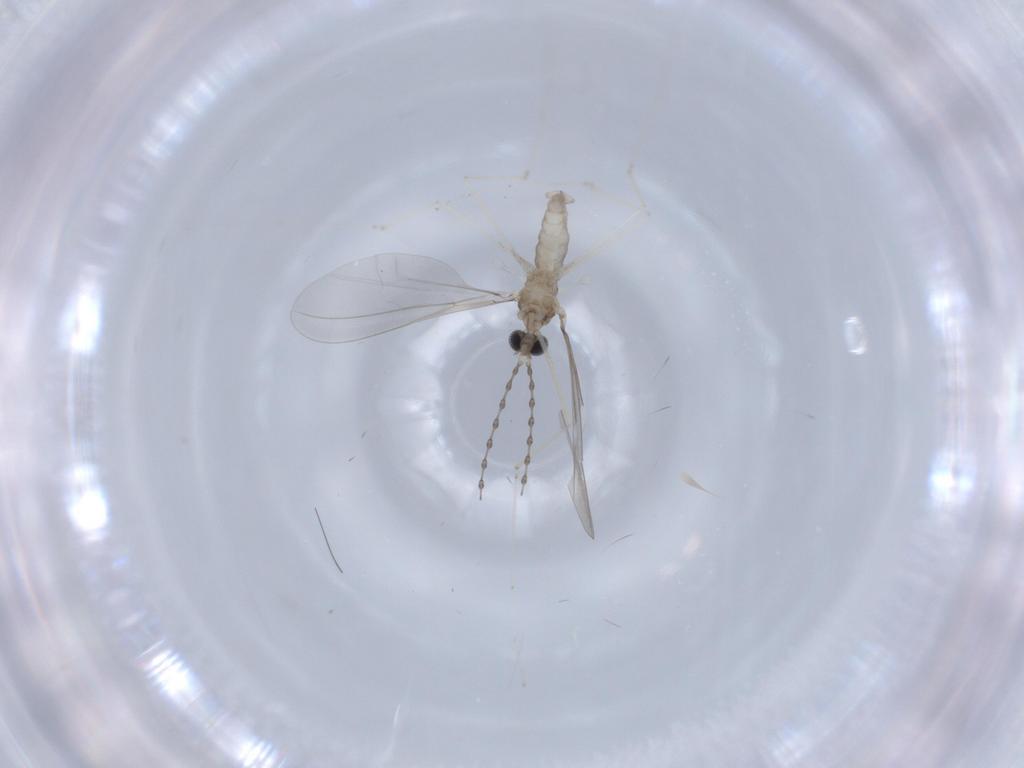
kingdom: Animalia
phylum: Arthropoda
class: Insecta
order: Diptera
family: Cecidomyiidae
